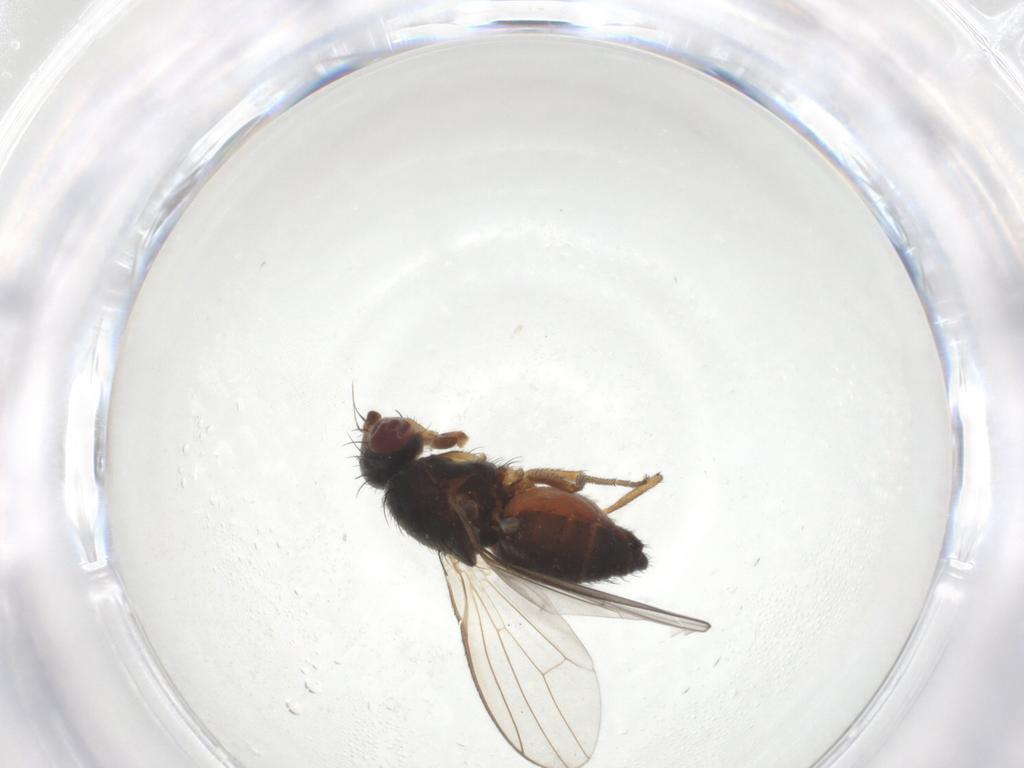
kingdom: Animalia
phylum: Arthropoda
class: Insecta
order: Diptera
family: Heleomyzidae
